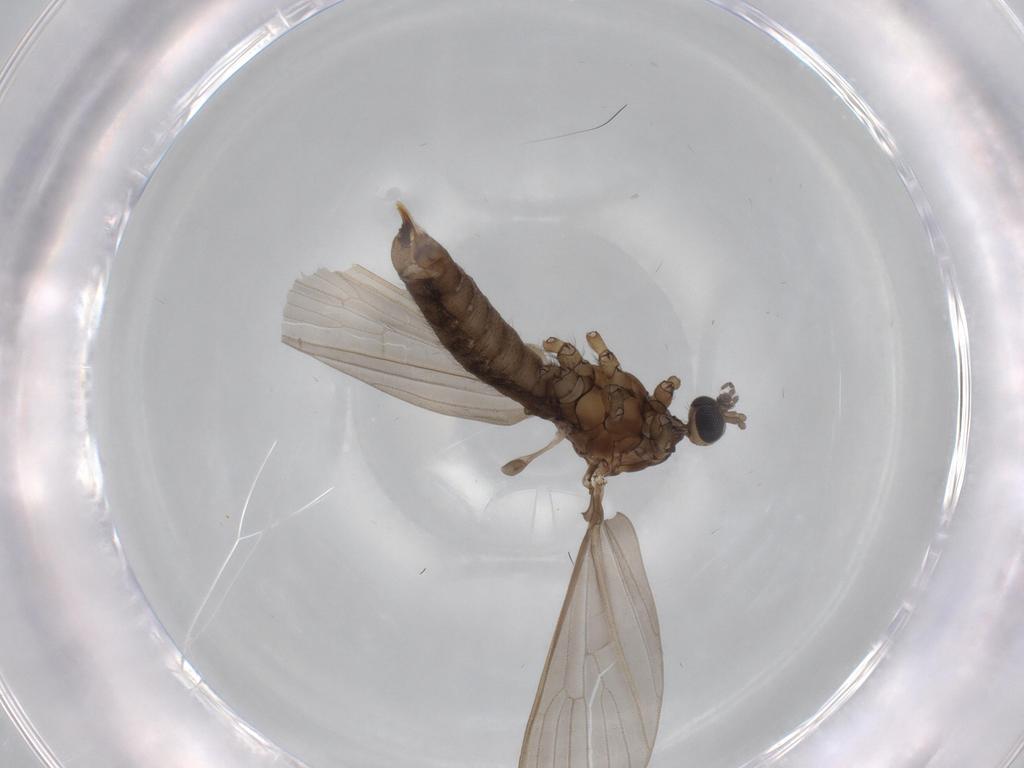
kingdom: Animalia
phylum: Arthropoda
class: Insecta
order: Diptera
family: Limoniidae
